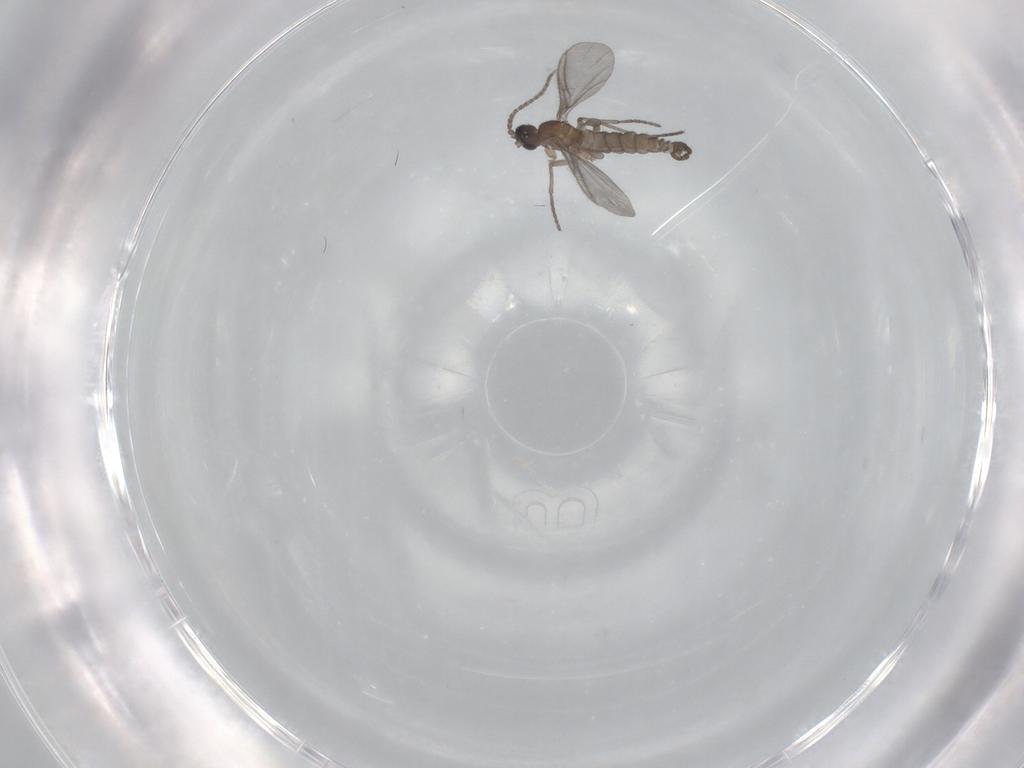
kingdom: Animalia
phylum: Arthropoda
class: Insecta
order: Diptera
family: Sciaridae
